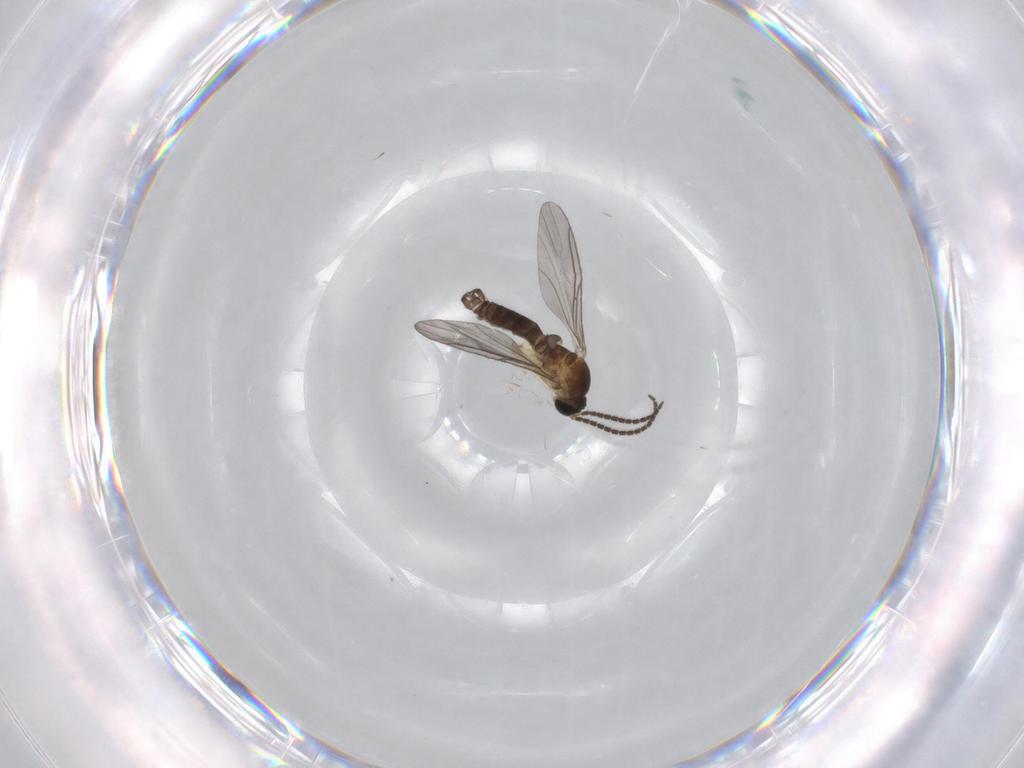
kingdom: Animalia
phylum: Arthropoda
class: Insecta
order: Diptera
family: Sciaridae
